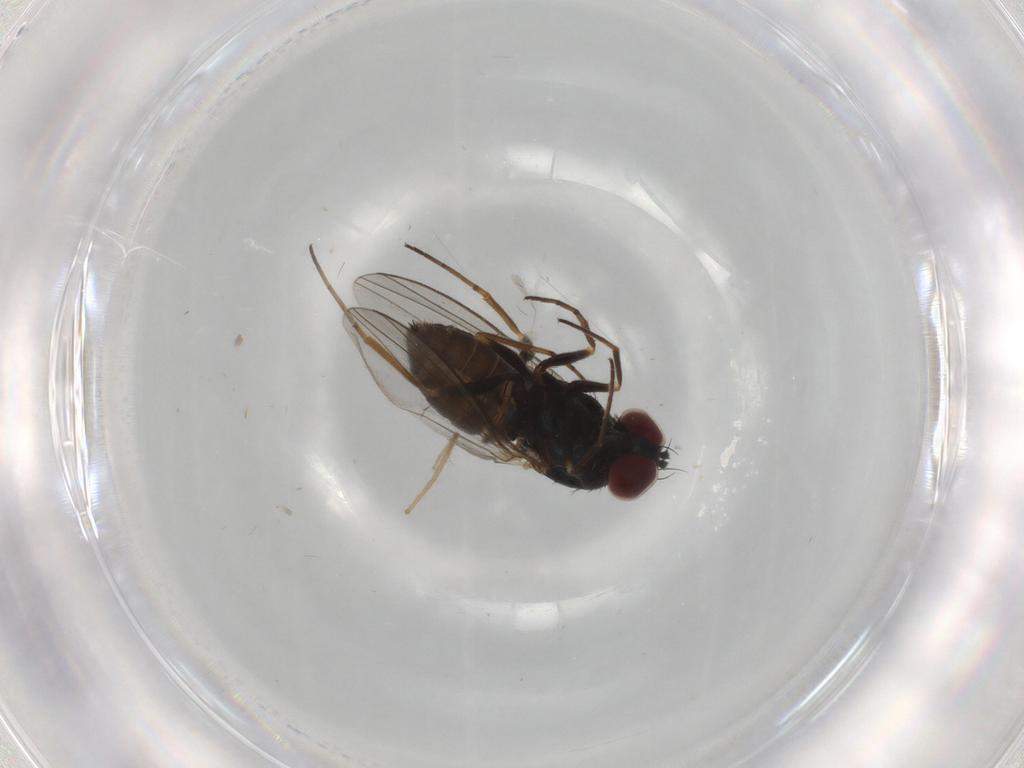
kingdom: Animalia
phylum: Arthropoda
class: Insecta
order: Diptera
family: Dolichopodidae
